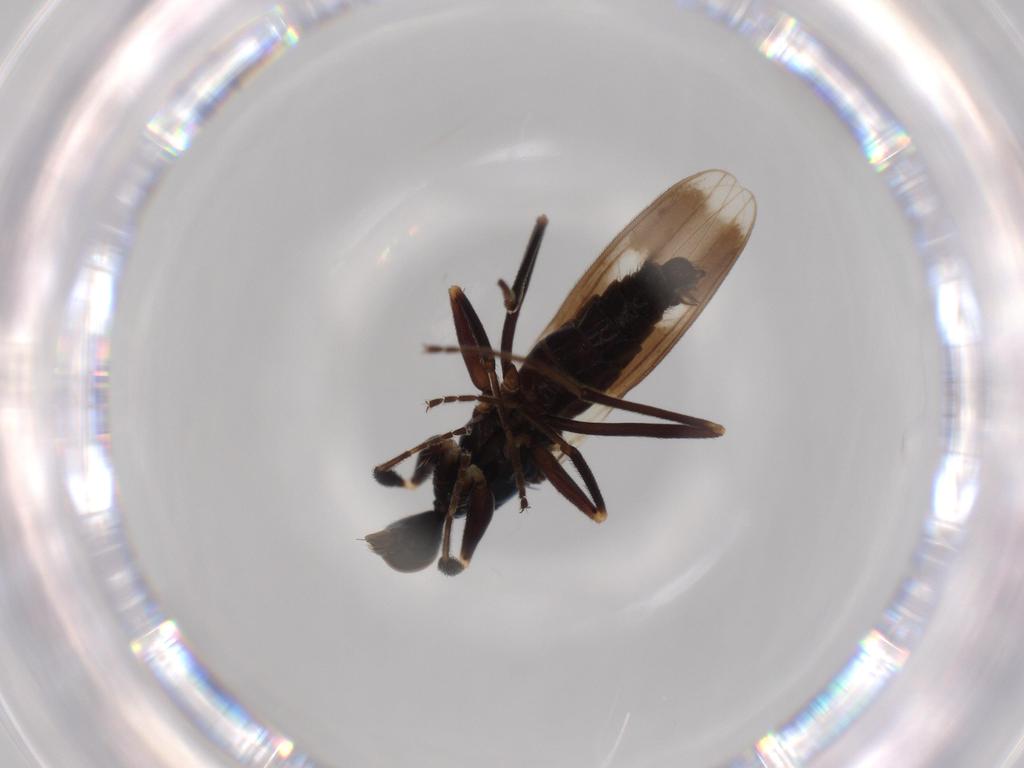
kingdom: Animalia
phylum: Arthropoda
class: Insecta
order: Diptera
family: Hybotidae
